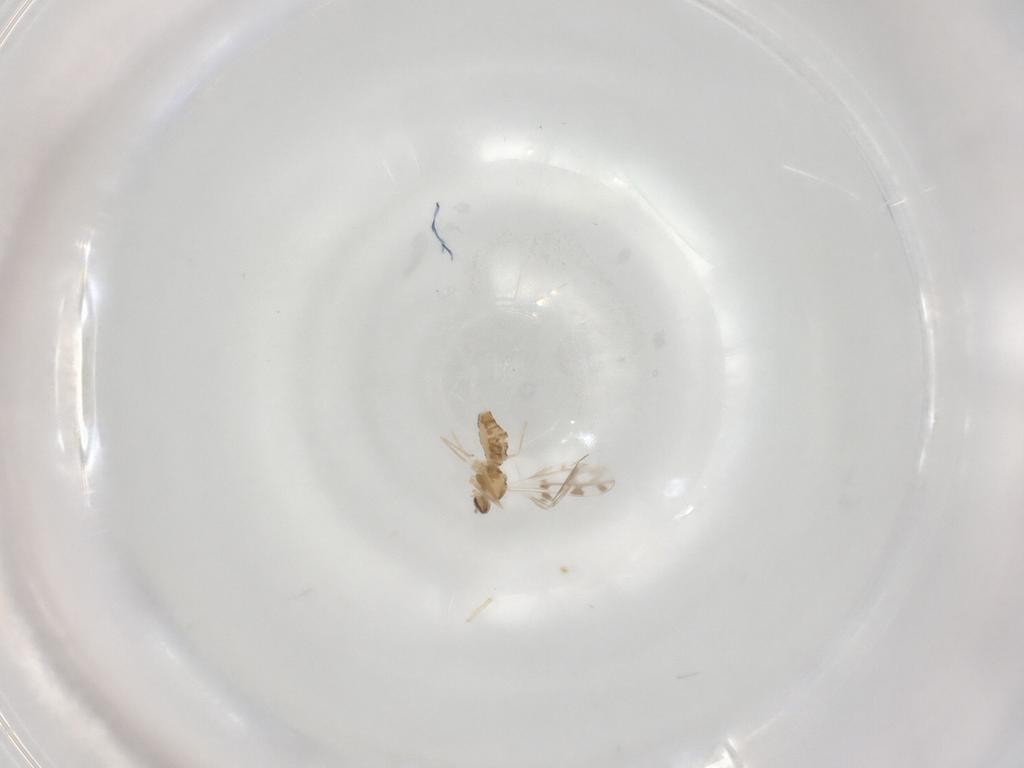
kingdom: Animalia
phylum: Arthropoda
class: Insecta
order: Diptera
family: Cecidomyiidae
